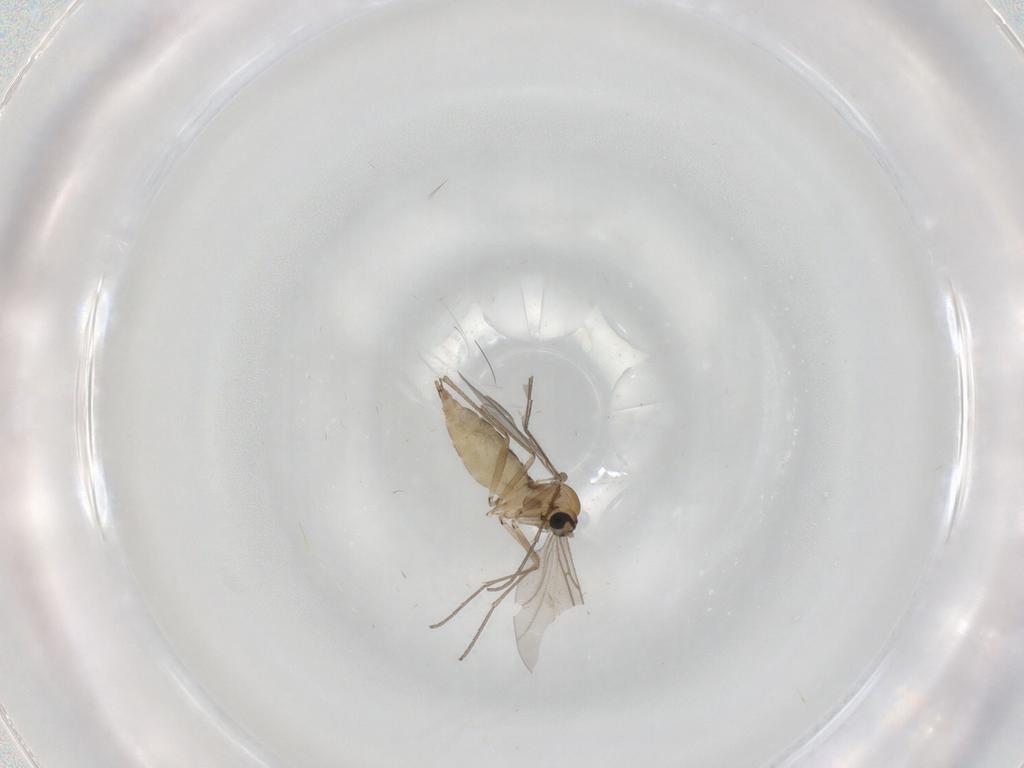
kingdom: Animalia
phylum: Arthropoda
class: Insecta
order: Diptera
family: Sciaridae
